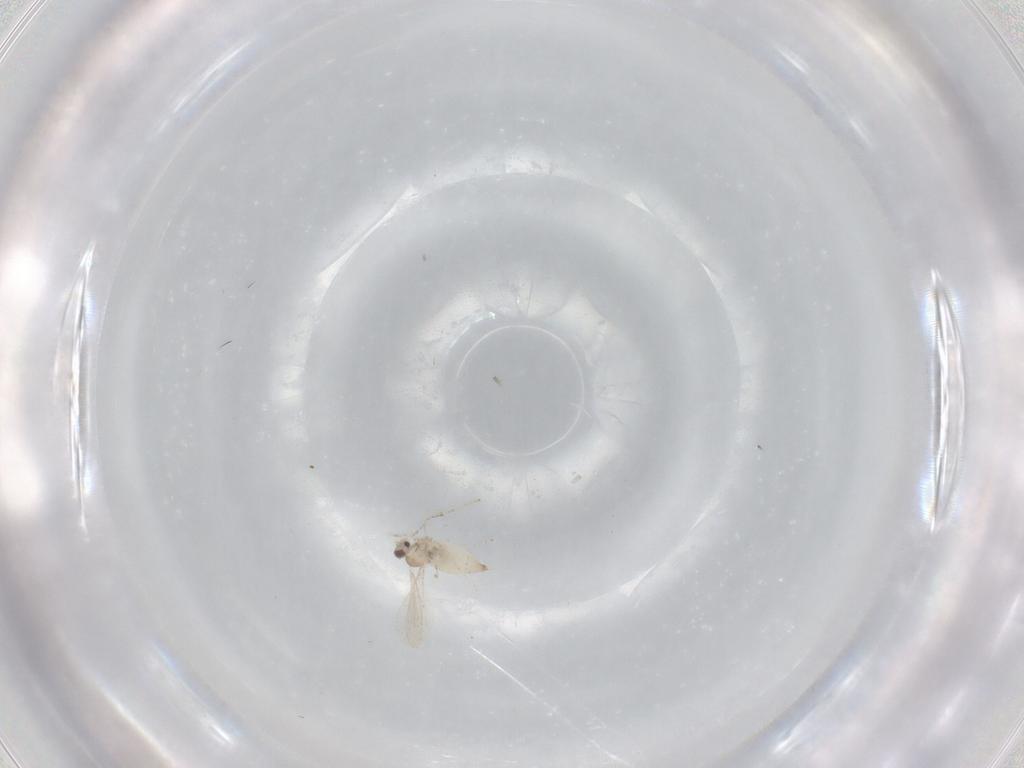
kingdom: Animalia
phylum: Arthropoda
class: Insecta
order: Diptera
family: Cecidomyiidae
